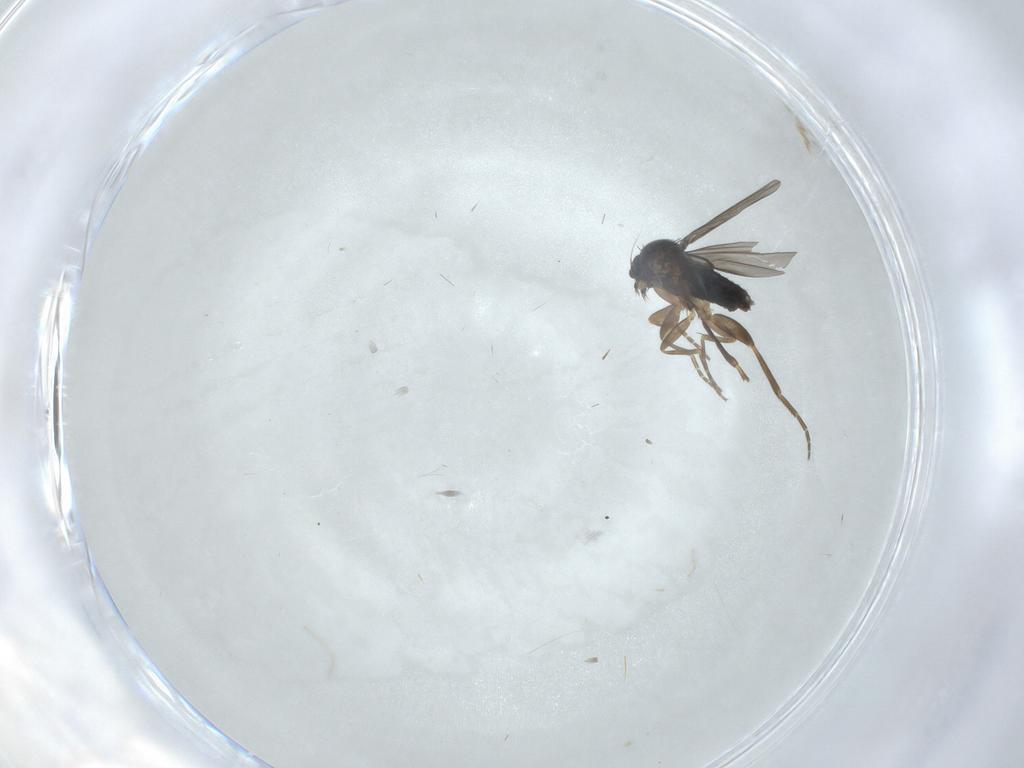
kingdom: Animalia
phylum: Arthropoda
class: Insecta
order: Diptera
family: Phoridae
